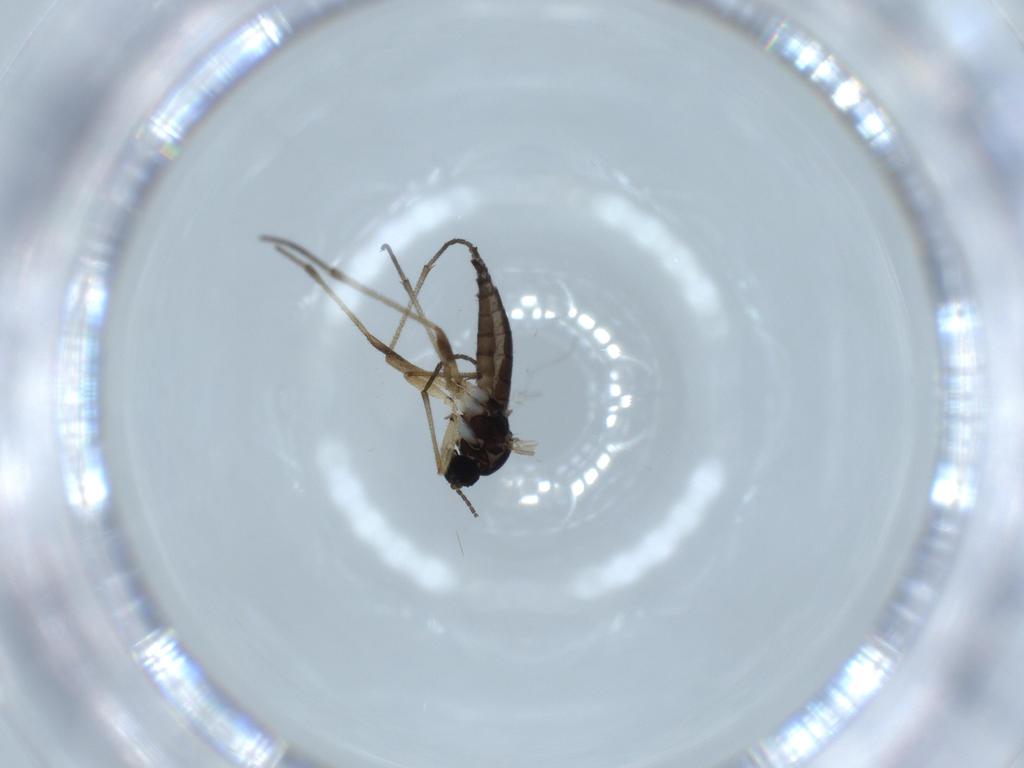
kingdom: Animalia
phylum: Arthropoda
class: Insecta
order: Diptera
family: Sciaridae
